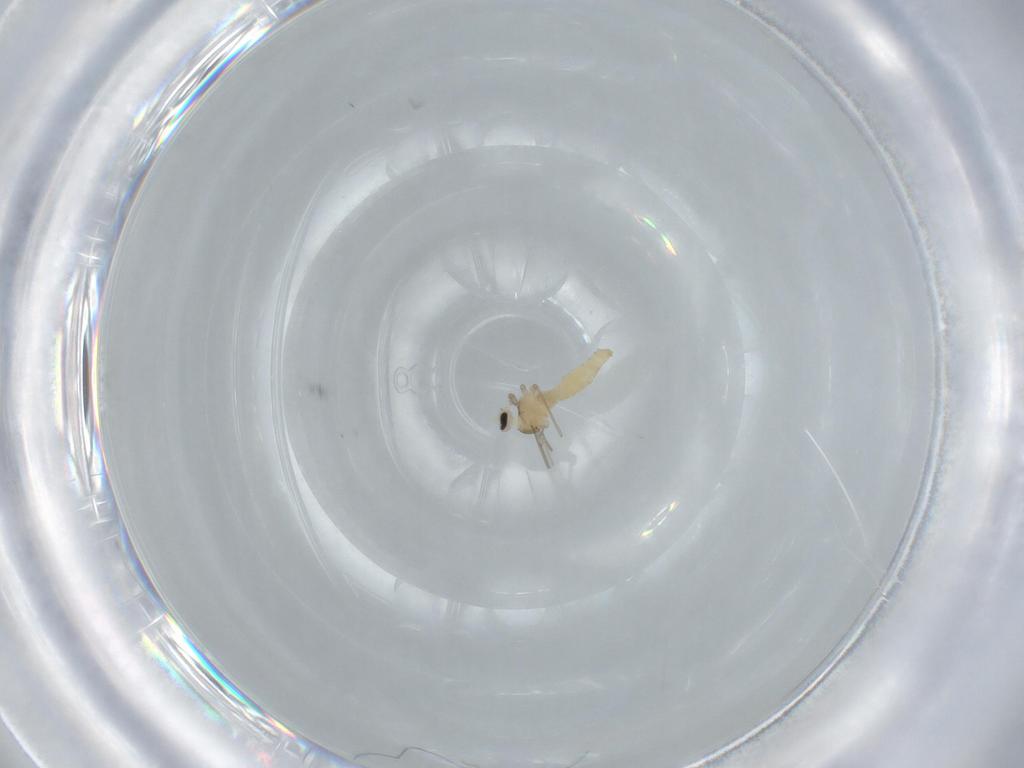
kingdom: Animalia
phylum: Arthropoda
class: Insecta
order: Diptera
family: Cecidomyiidae
